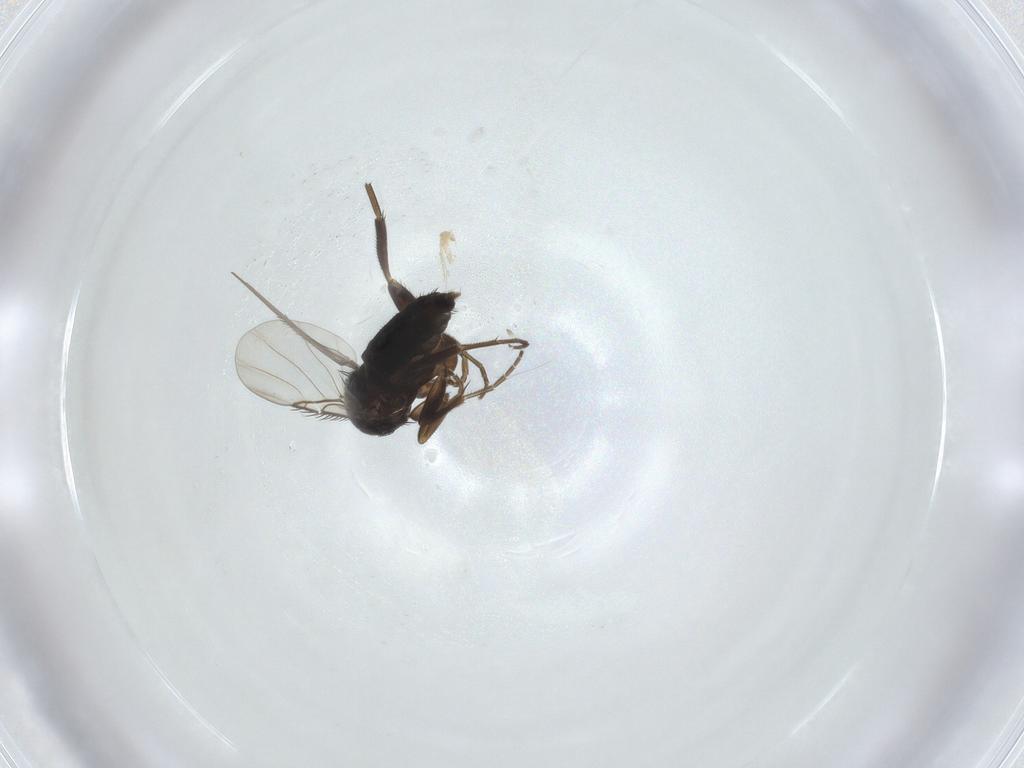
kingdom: Animalia
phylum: Arthropoda
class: Insecta
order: Diptera
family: Phoridae
